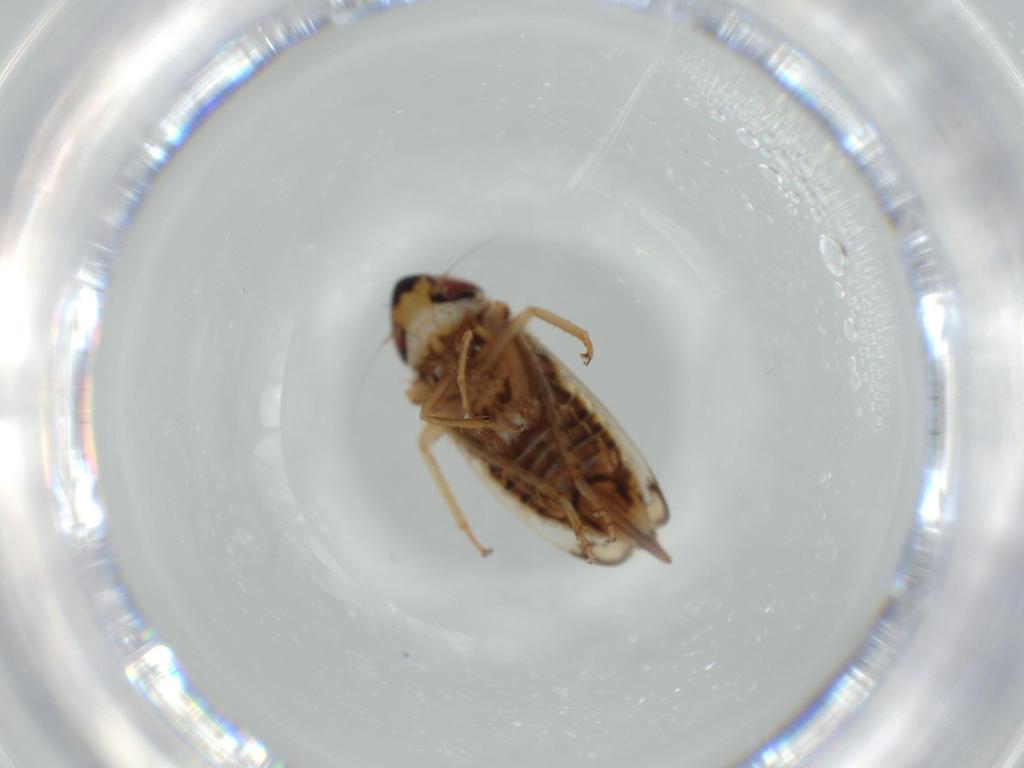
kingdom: Animalia
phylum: Arthropoda
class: Insecta
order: Hemiptera
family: Cicadellidae
